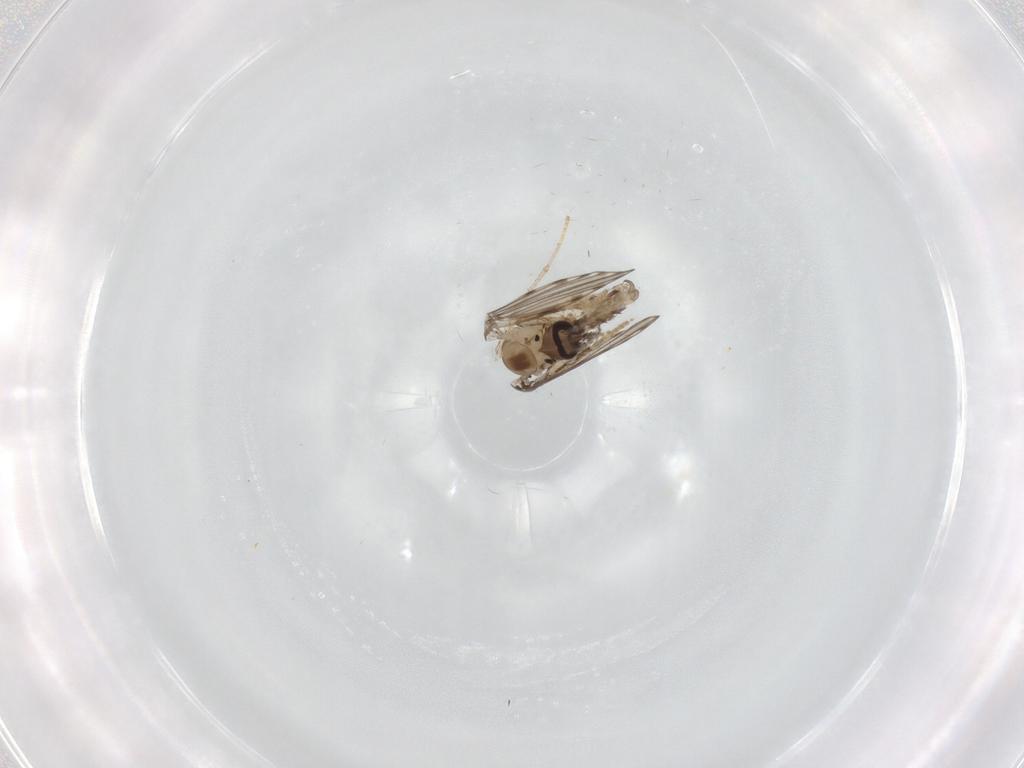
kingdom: Animalia
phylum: Arthropoda
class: Insecta
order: Diptera
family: Psychodidae
